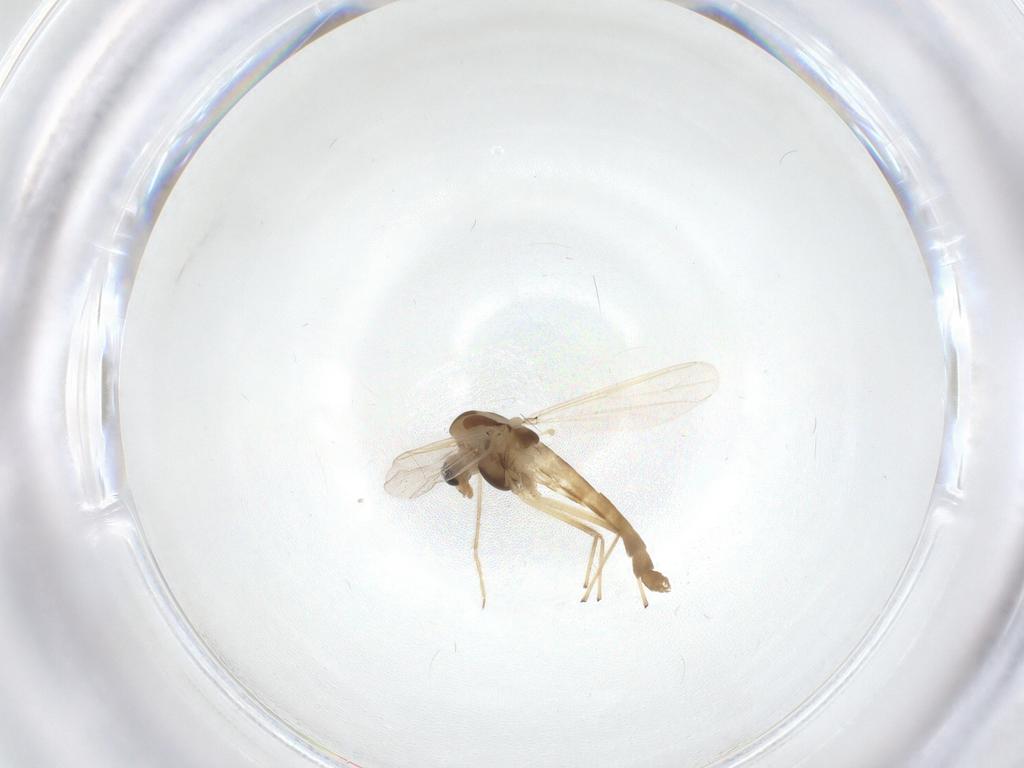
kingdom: Animalia
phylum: Arthropoda
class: Insecta
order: Diptera
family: Chironomidae
